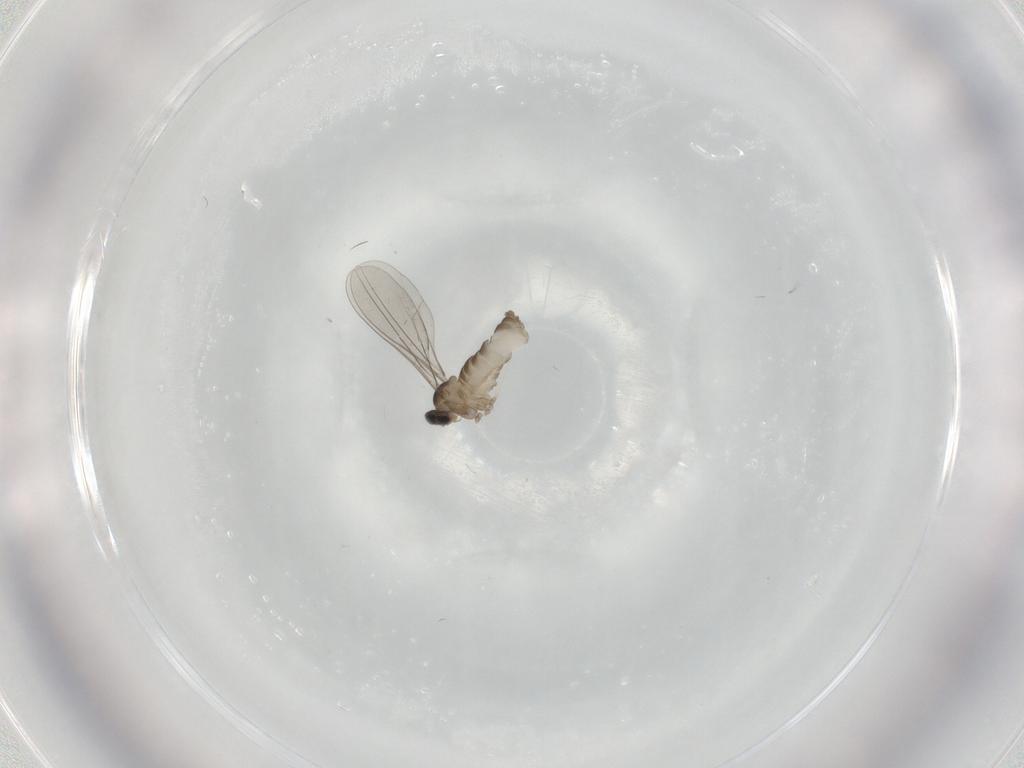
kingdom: Animalia
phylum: Arthropoda
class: Insecta
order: Diptera
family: Cecidomyiidae
